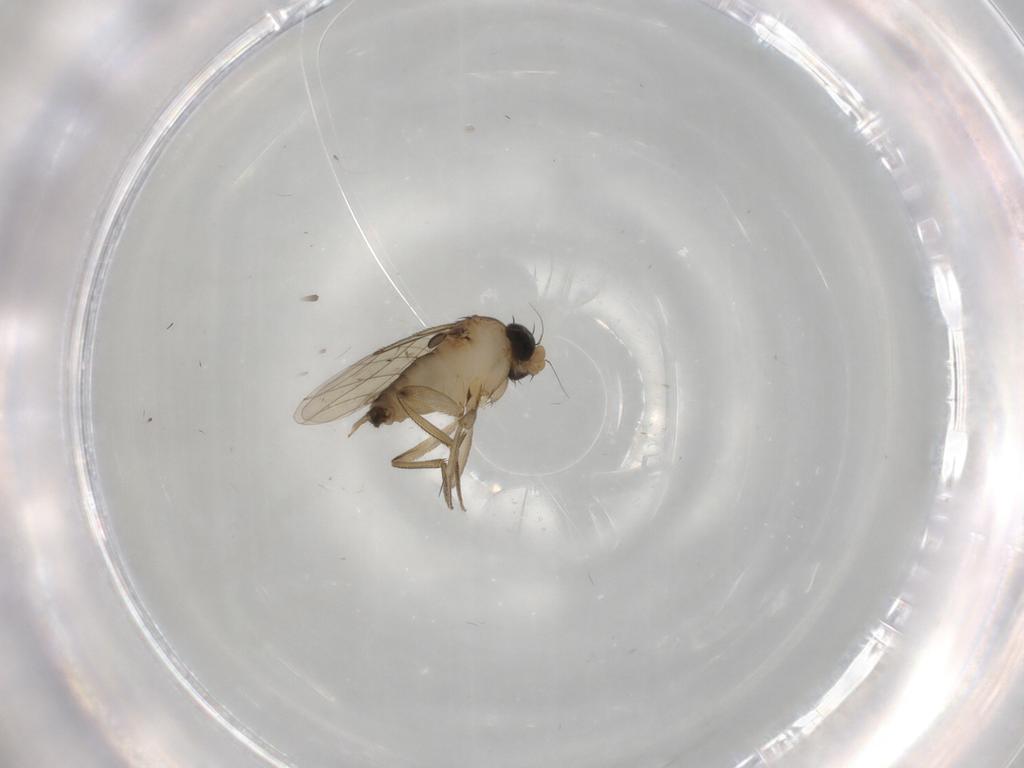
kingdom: Animalia
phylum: Arthropoda
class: Insecta
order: Diptera
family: Phoridae
